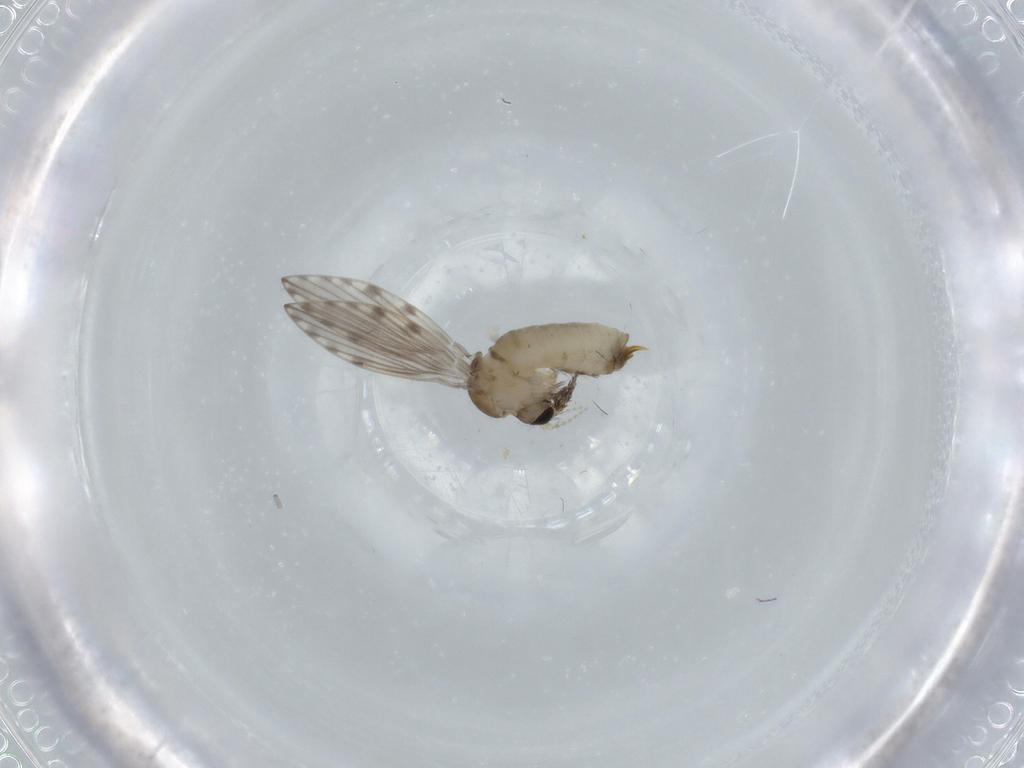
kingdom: Animalia
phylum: Arthropoda
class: Insecta
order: Diptera
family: Psychodidae
